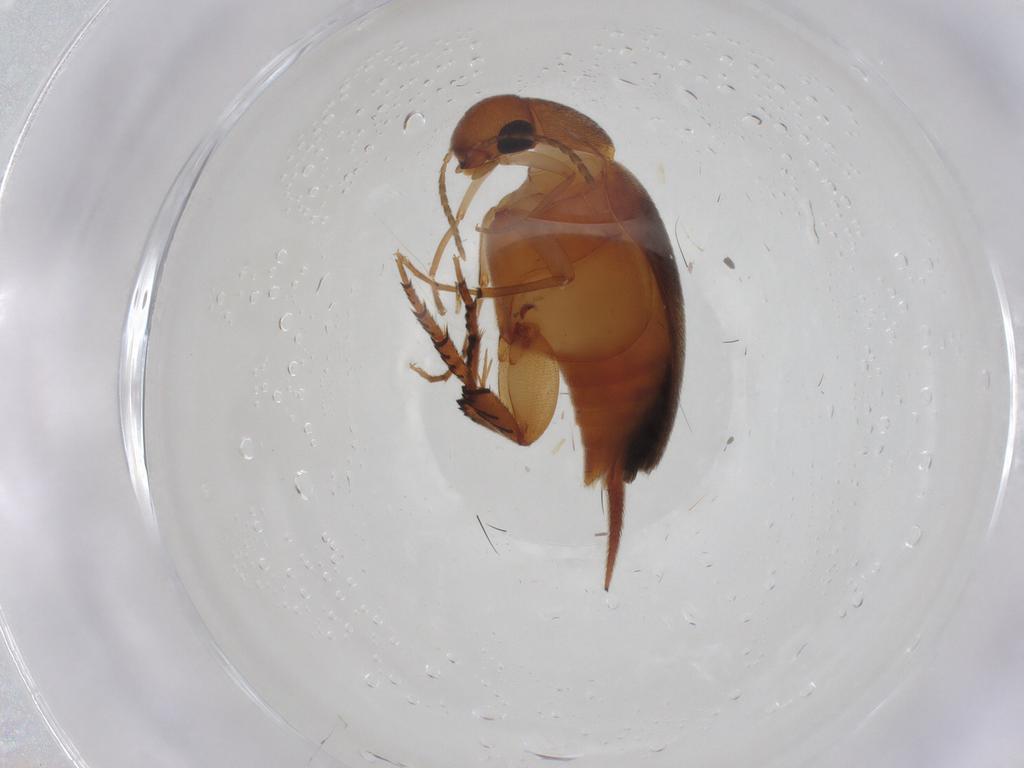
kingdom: Animalia
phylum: Arthropoda
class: Insecta
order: Coleoptera
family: Mordellidae
